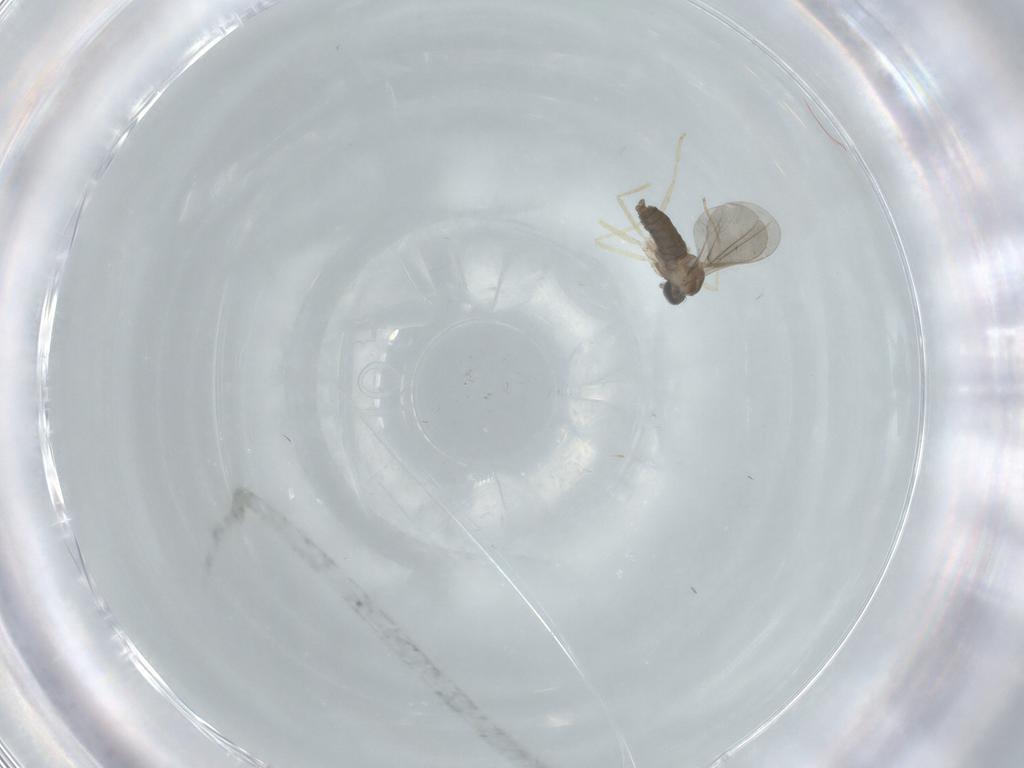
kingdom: Animalia
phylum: Arthropoda
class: Insecta
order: Diptera
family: Cecidomyiidae
